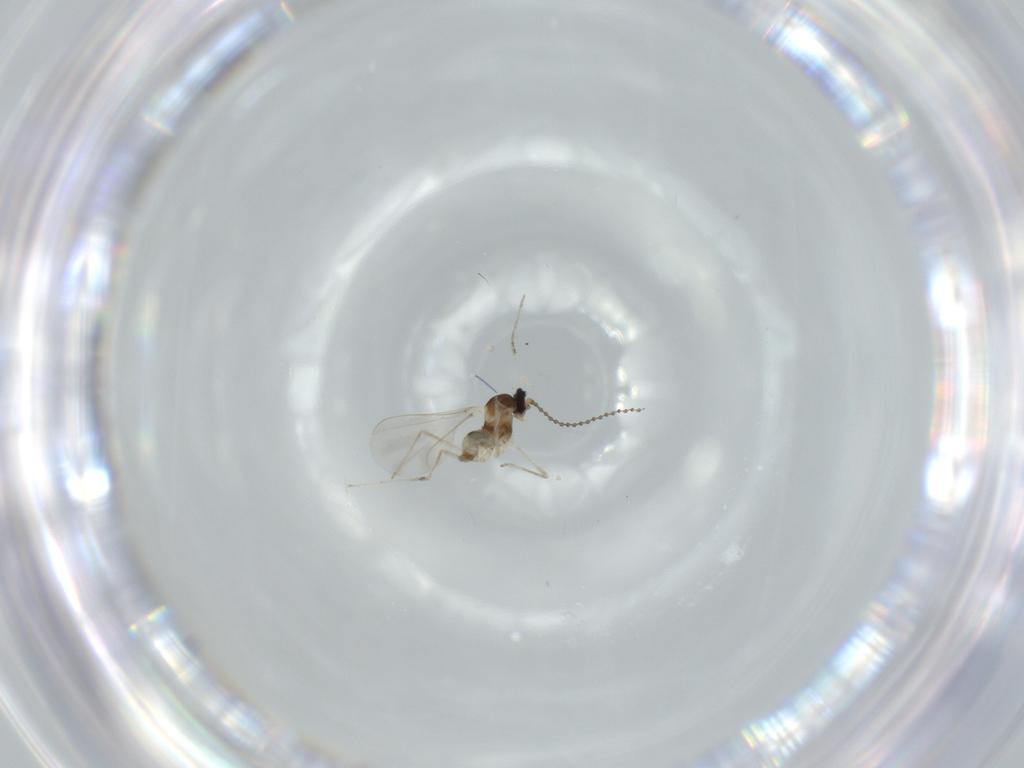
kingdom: Animalia
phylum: Arthropoda
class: Insecta
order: Diptera
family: Cecidomyiidae
